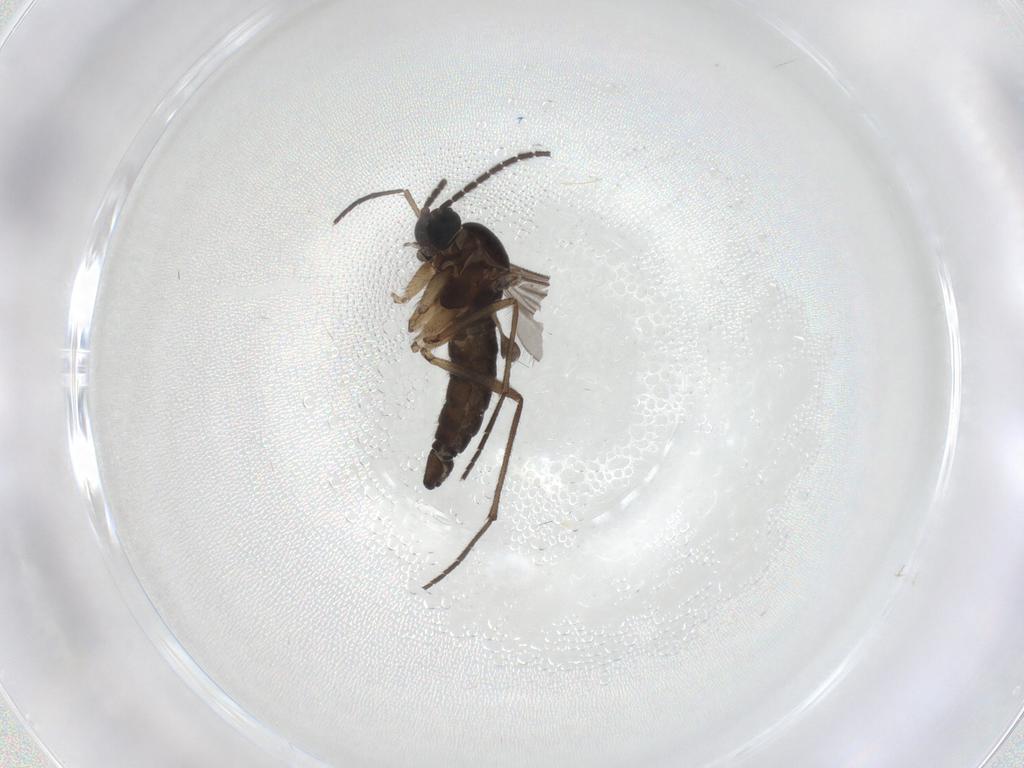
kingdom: Animalia
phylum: Arthropoda
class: Insecta
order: Diptera
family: Sciaridae
